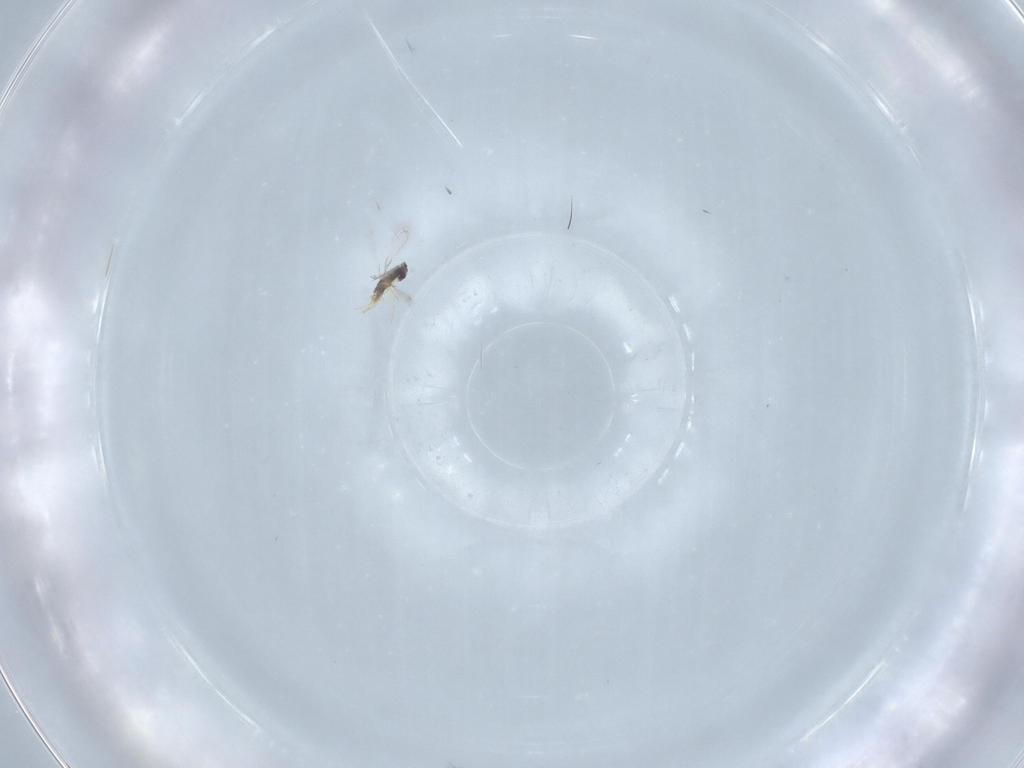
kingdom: Animalia
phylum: Arthropoda
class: Insecta
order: Hymenoptera
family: Mymaridae
